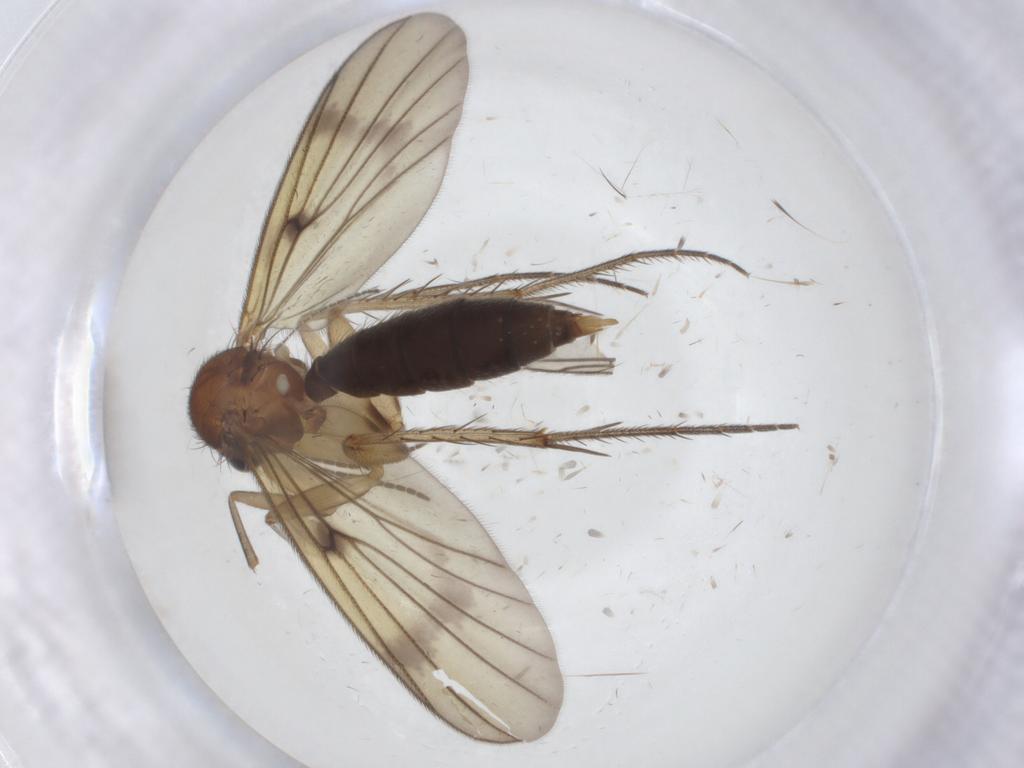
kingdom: Animalia
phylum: Arthropoda
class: Insecta
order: Diptera
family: Mycetophilidae
